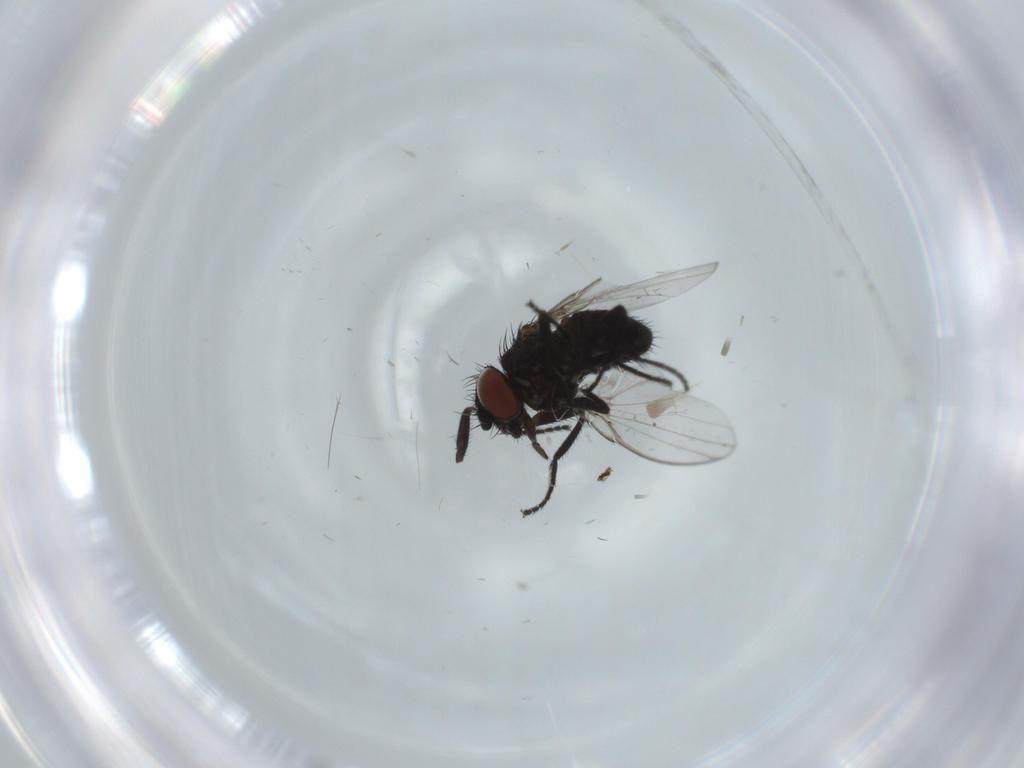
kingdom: Animalia
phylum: Arthropoda
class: Insecta
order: Diptera
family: Milichiidae
